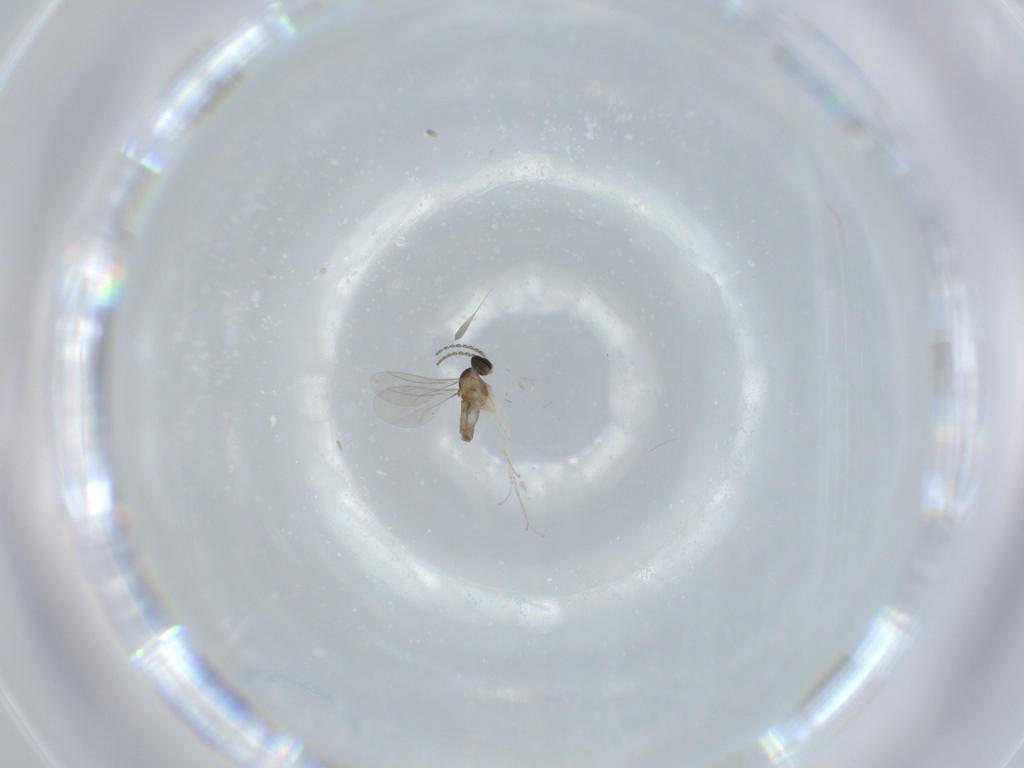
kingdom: Animalia
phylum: Arthropoda
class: Insecta
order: Diptera
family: Cecidomyiidae
